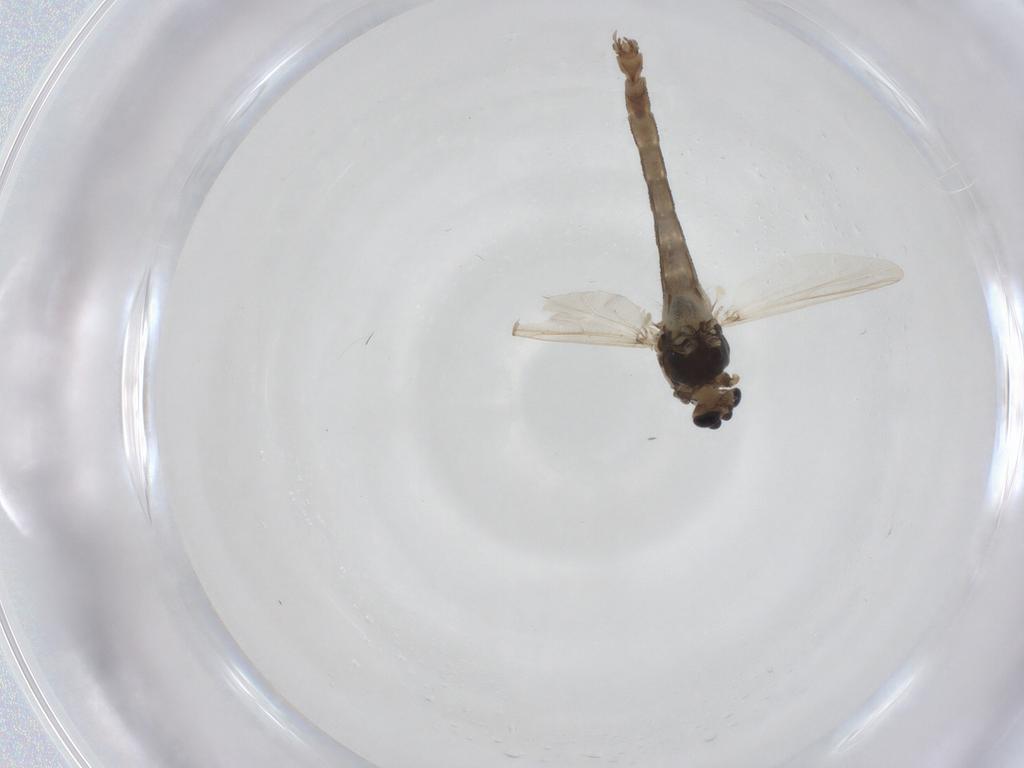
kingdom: Animalia
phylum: Arthropoda
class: Insecta
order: Diptera
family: Chironomidae
